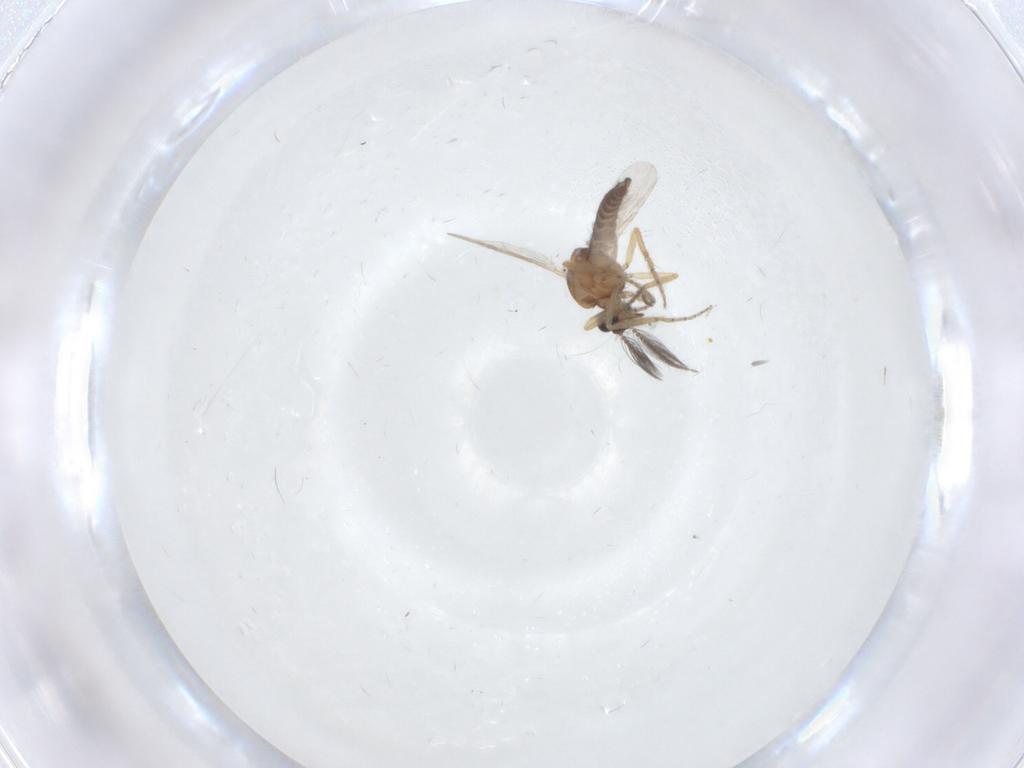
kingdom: Animalia
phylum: Arthropoda
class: Insecta
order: Diptera
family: Ceratopogonidae
